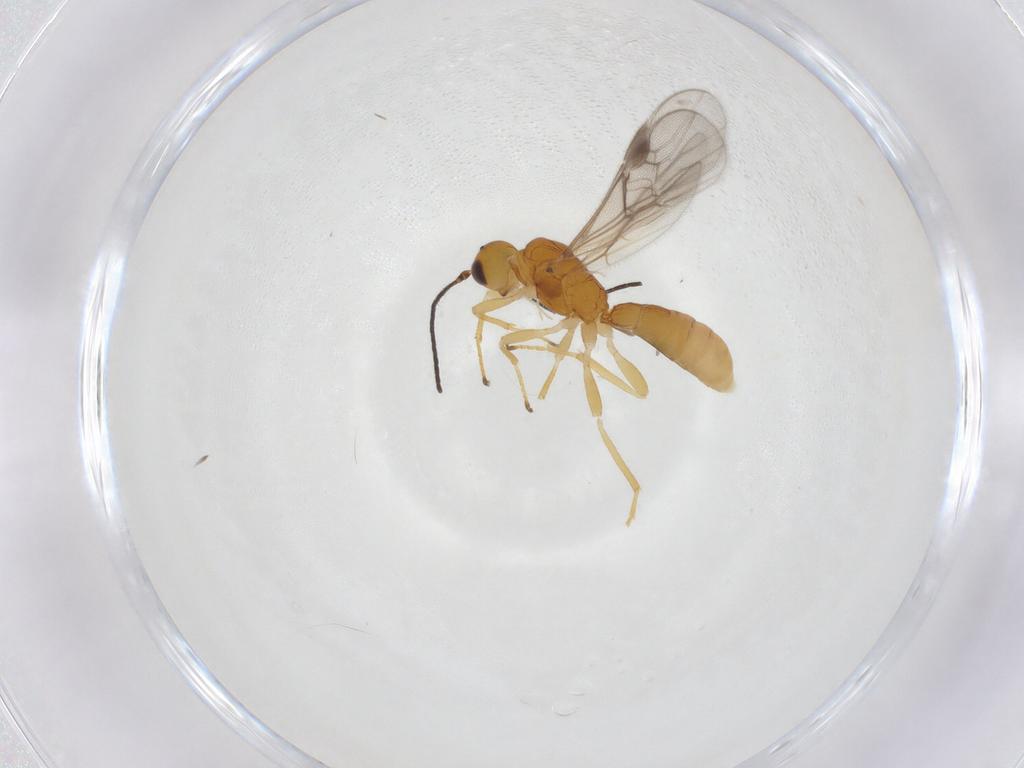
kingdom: Animalia
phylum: Arthropoda
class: Insecta
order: Hymenoptera
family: Braconidae
